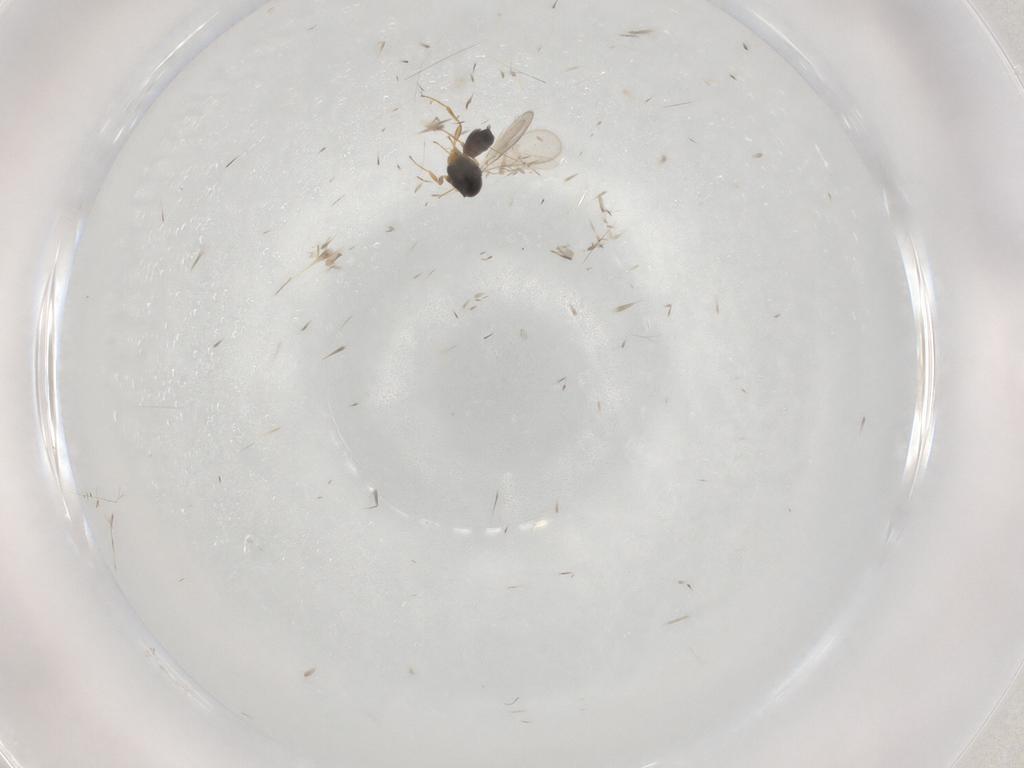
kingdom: Animalia
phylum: Arthropoda
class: Insecta
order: Hymenoptera
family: Scelionidae
